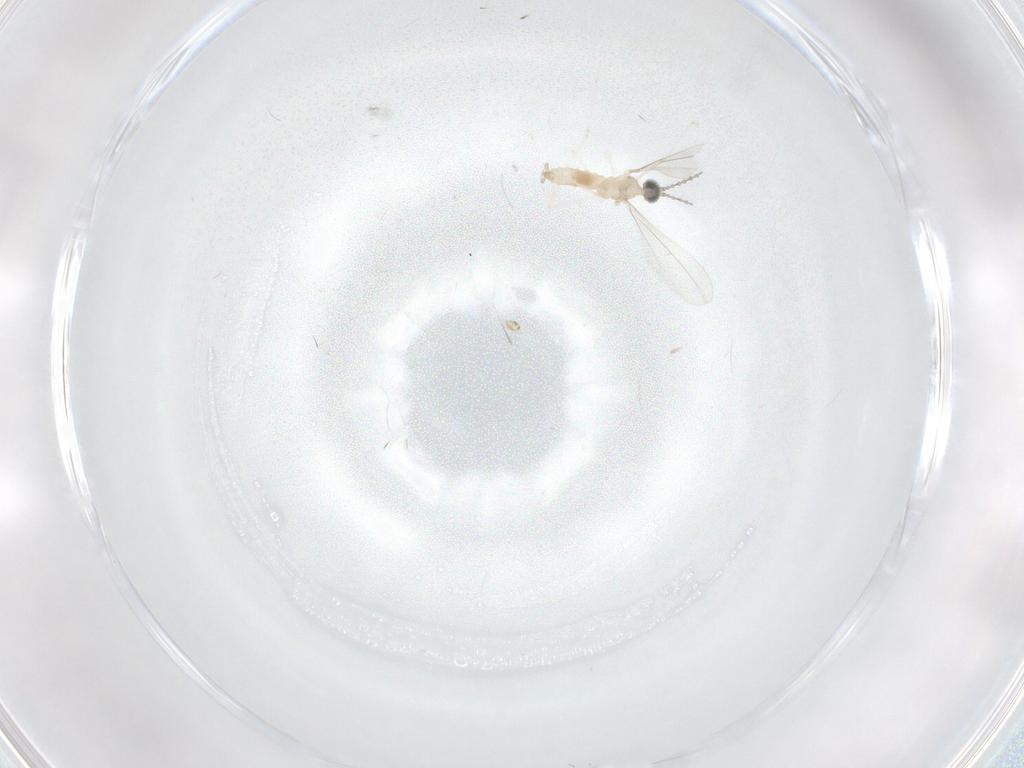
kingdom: Animalia
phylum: Arthropoda
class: Insecta
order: Diptera
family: Cecidomyiidae
